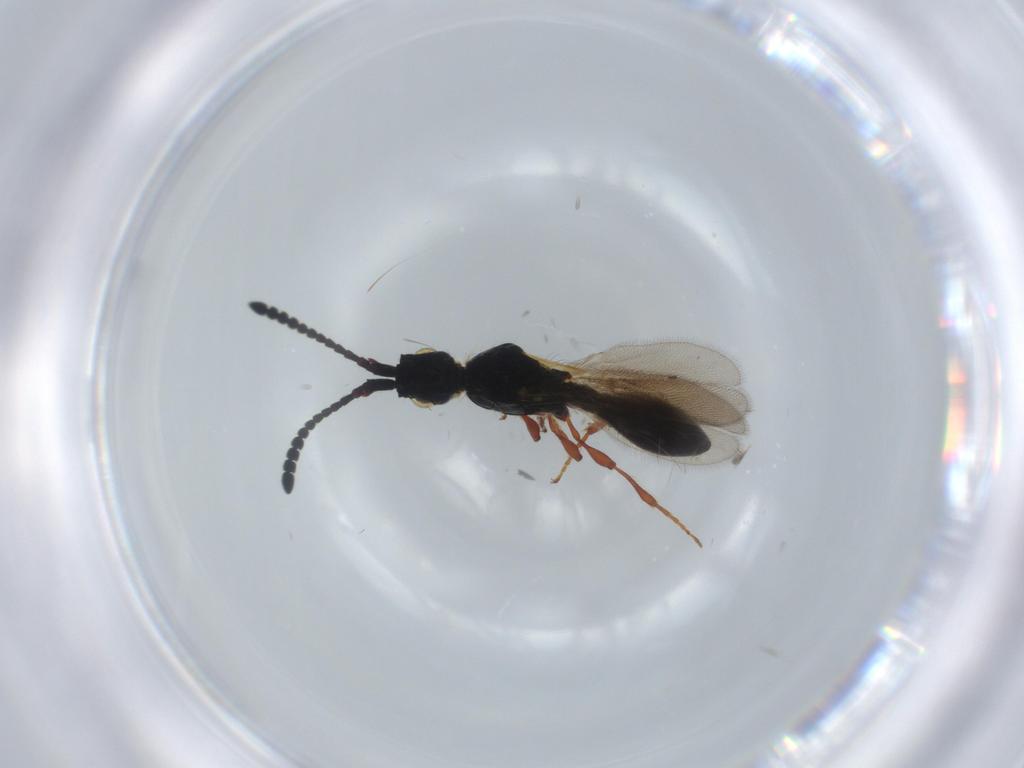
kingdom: Animalia
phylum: Arthropoda
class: Insecta
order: Hymenoptera
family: Diapriidae
